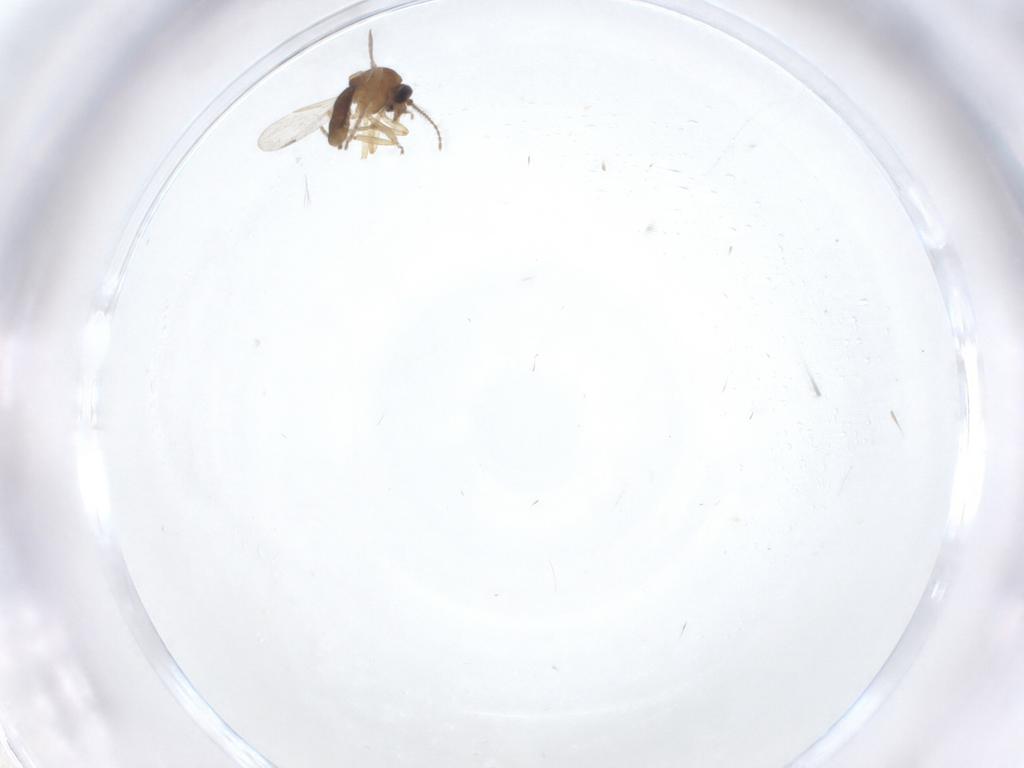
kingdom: Animalia
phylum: Arthropoda
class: Insecta
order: Diptera
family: Ceratopogonidae
